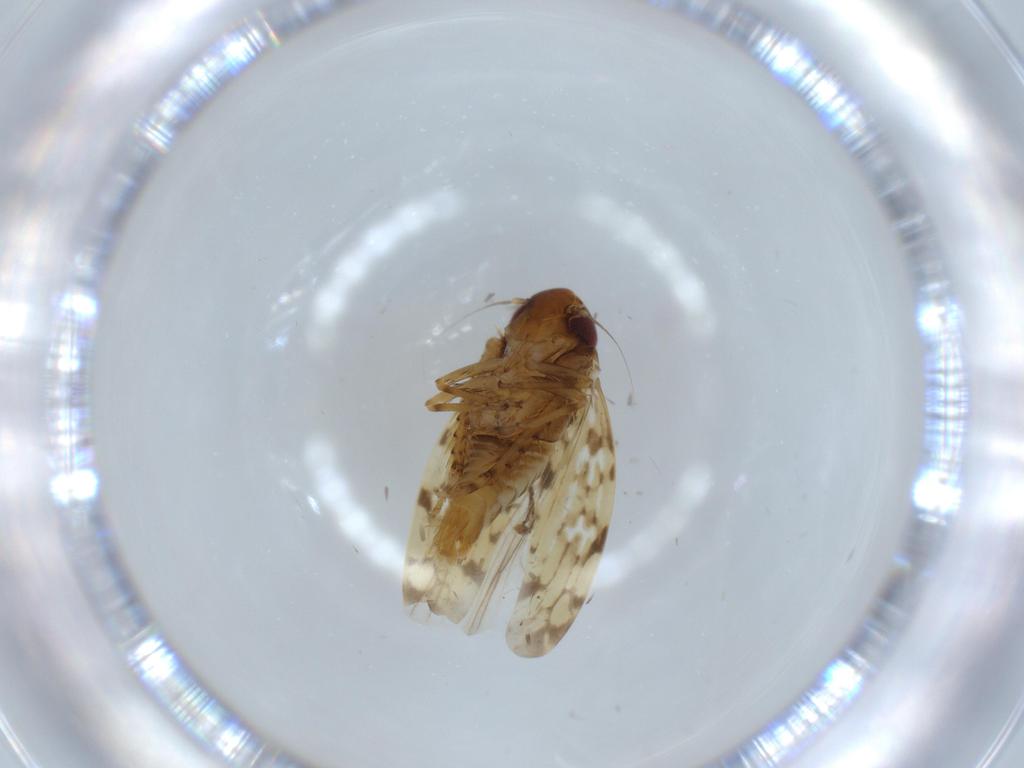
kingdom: Animalia
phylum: Arthropoda
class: Insecta
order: Hemiptera
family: Cicadellidae
